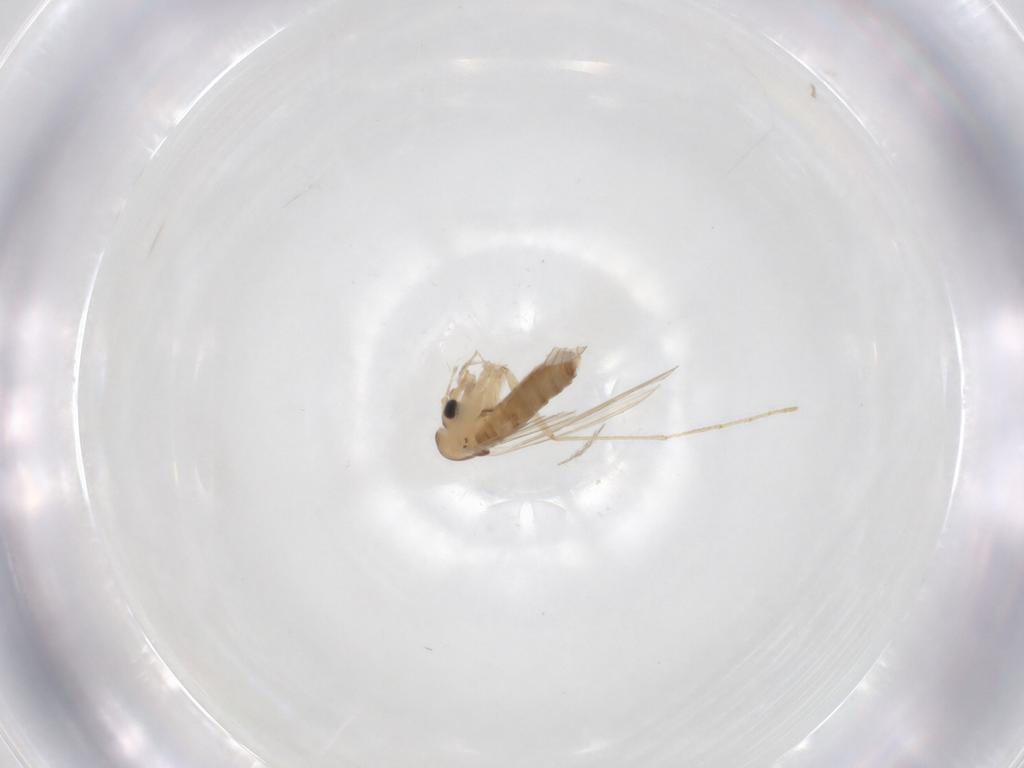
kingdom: Animalia
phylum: Arthropoda
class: Insecta
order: Diptera
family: Psychodidae
